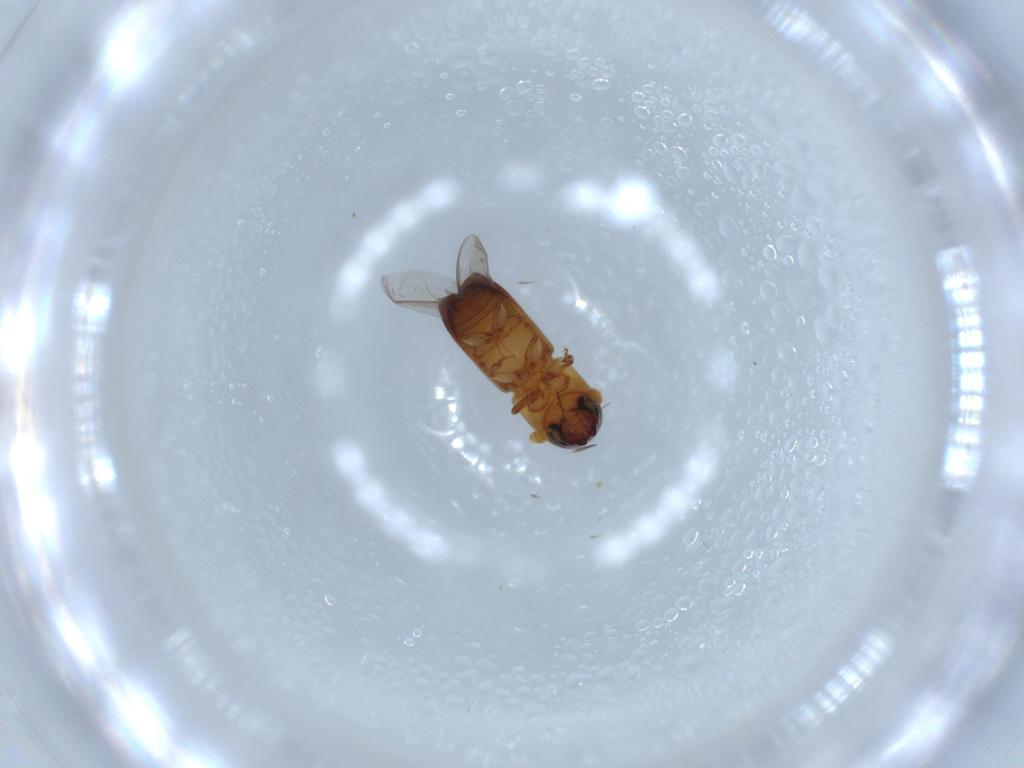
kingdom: Animalia
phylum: Arthropoda
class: Insecta
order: Coleoptera
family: Curculionidae
